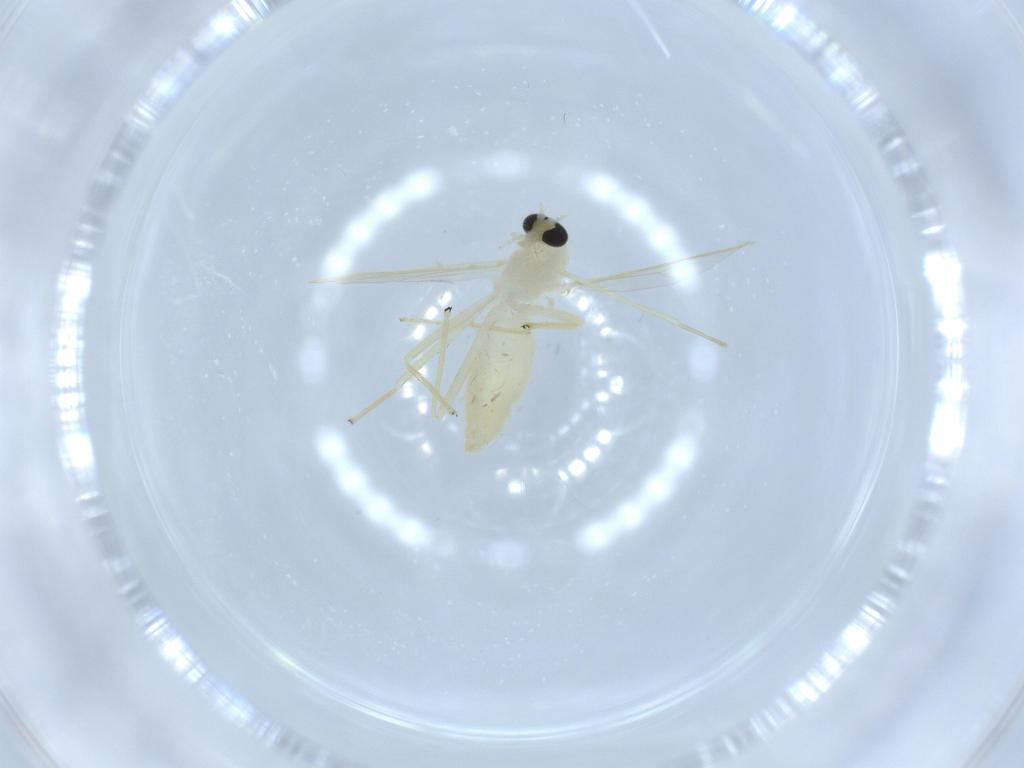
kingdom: Animalia
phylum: Arthropoda
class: Insecta
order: Diptera
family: Chironomidae
